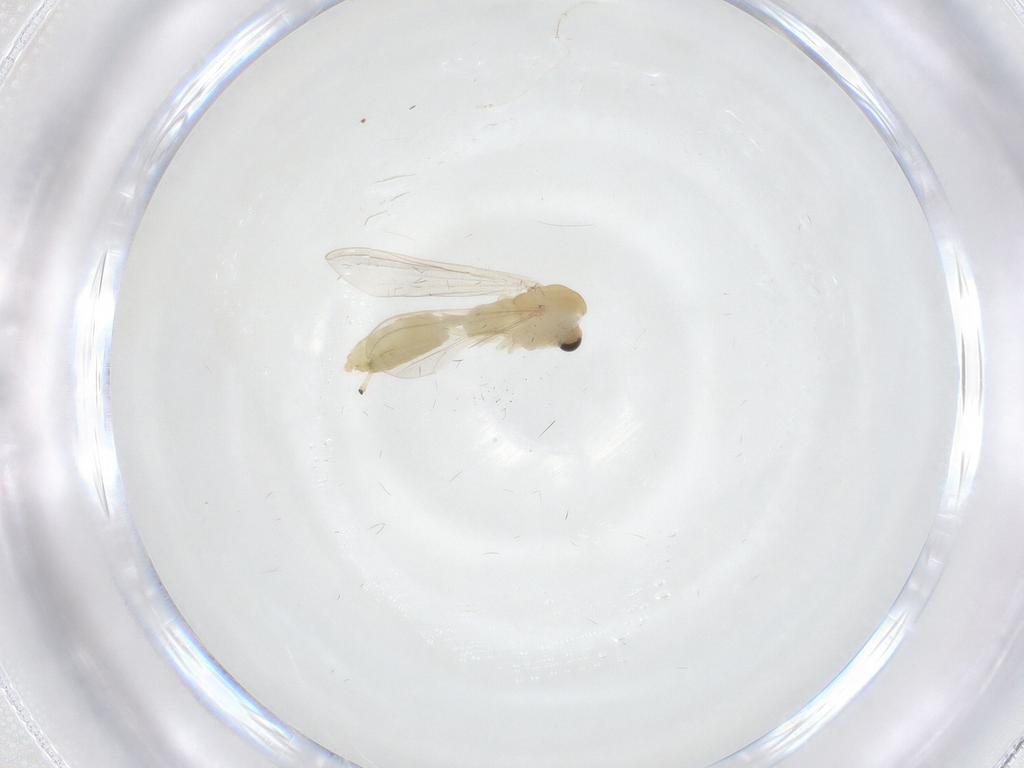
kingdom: Animalia
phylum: Arthropoda
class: Insecta
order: Diptera
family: Chironomidae
